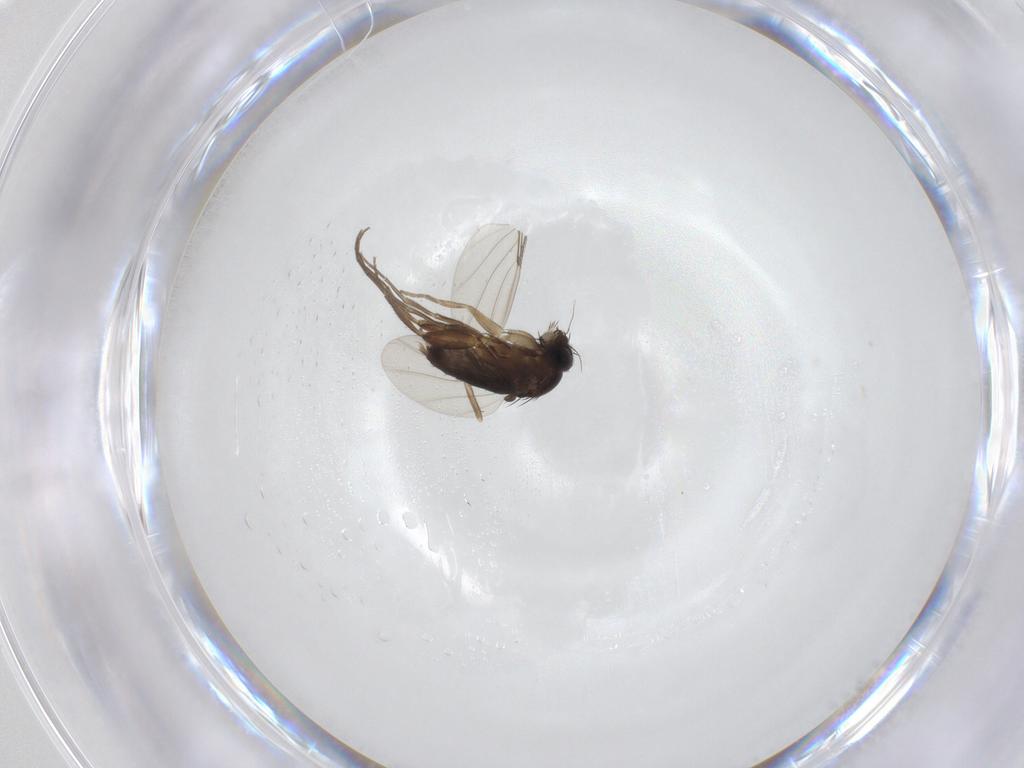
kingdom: Animalia
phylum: Arthropoda
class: Insecta
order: Diptera
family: Phoridae
